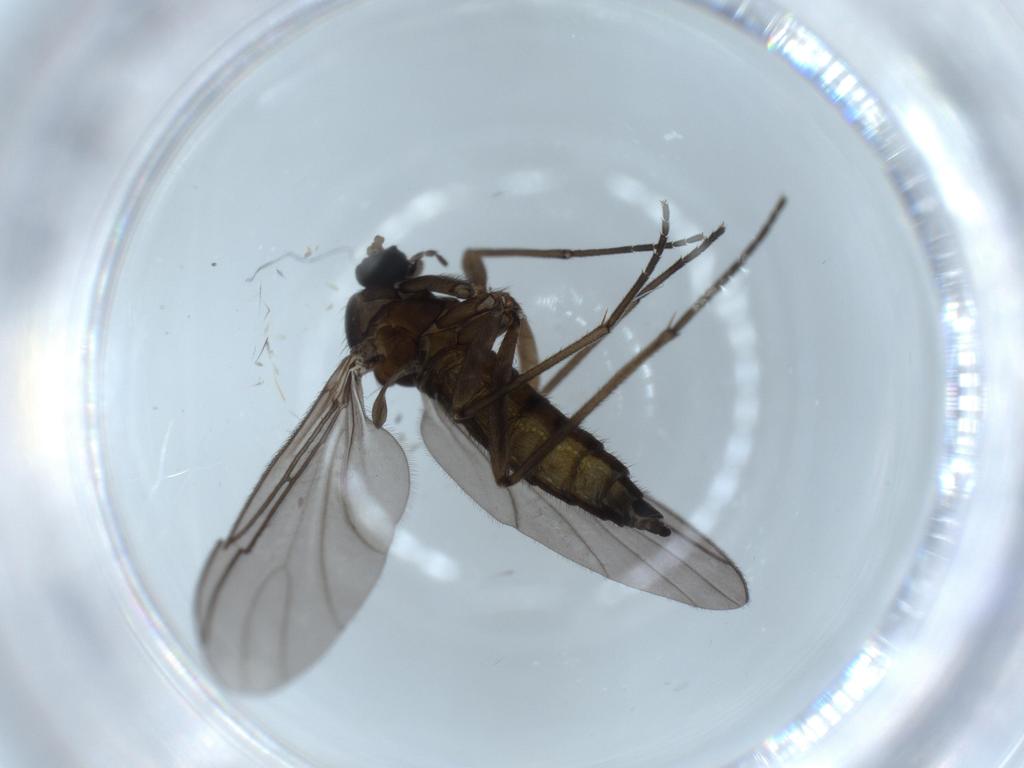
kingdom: Animalia
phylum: Arthropoda
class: Insecta
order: Diptera
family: Sciaridae
